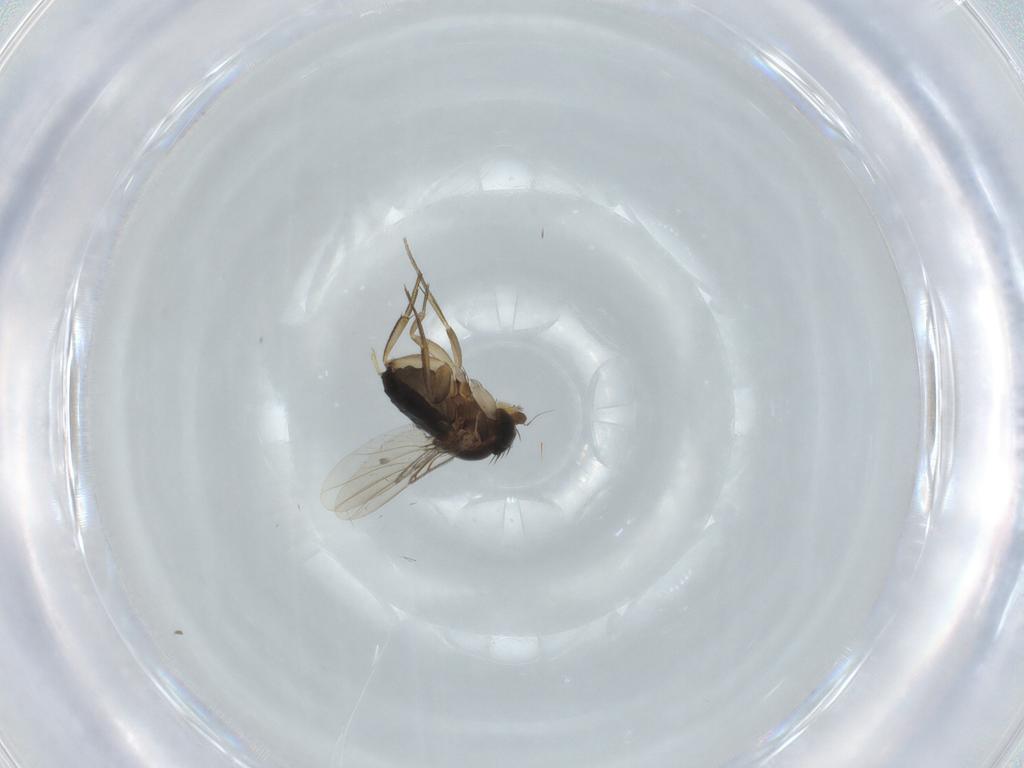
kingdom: Animalia
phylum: Arthropoda
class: Insecta
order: Diptera
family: Phoridae
